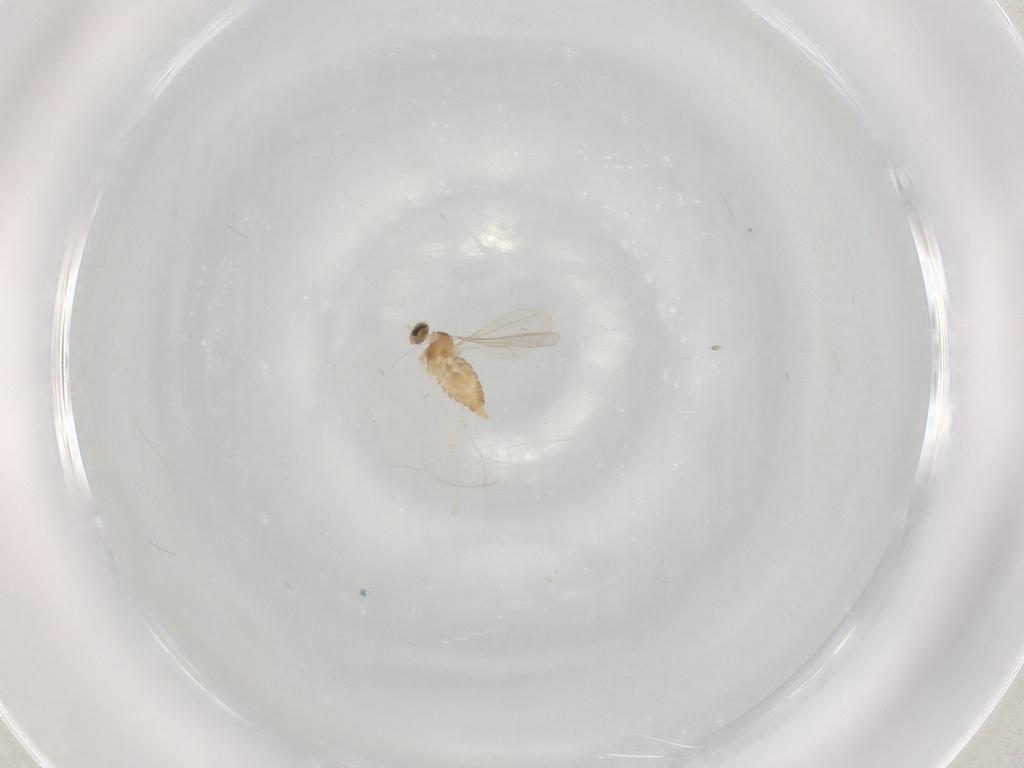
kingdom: Animalia
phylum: Arthropoda
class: Insecta
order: Diptera
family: Cecidomyiidae
